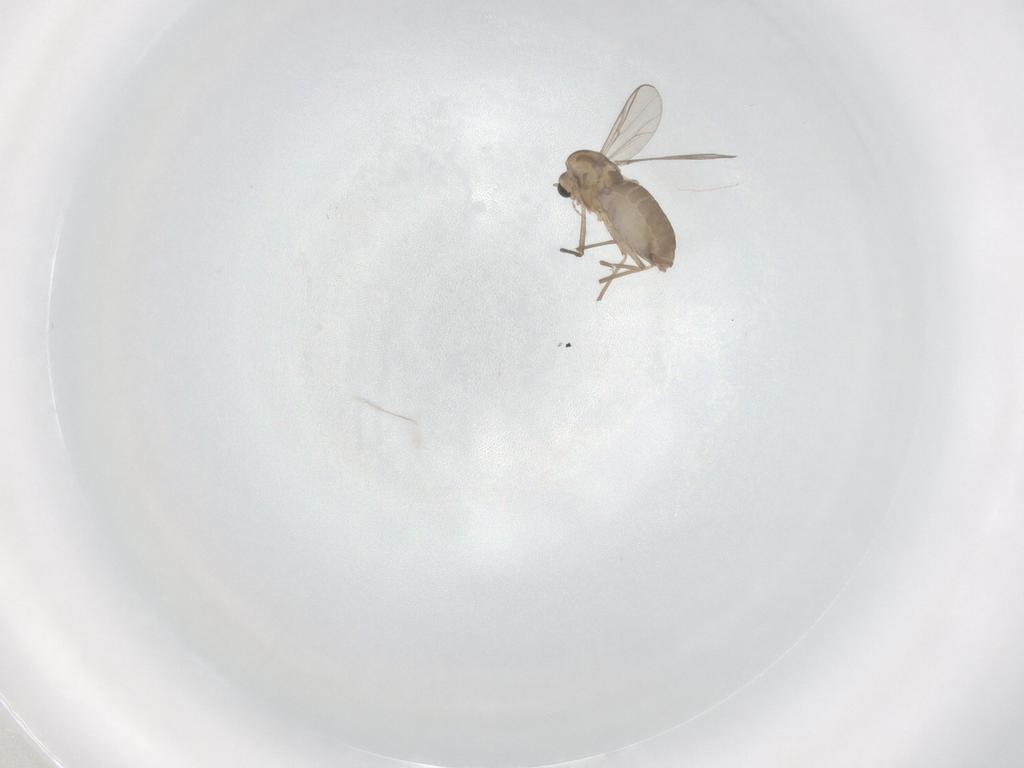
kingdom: Animalia
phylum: Arthropoda
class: Insecta
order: Diptera
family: Chironomidae
